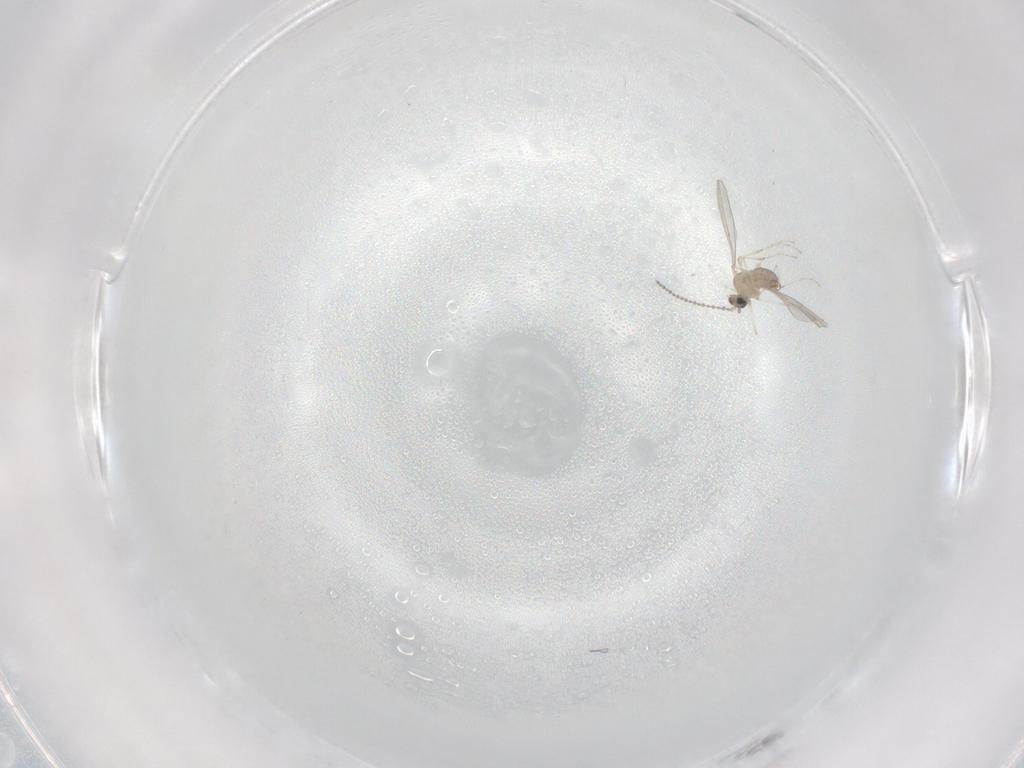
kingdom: Animalia
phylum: Arthropoda
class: Insecta
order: Diptera
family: Cecidomyiidae
